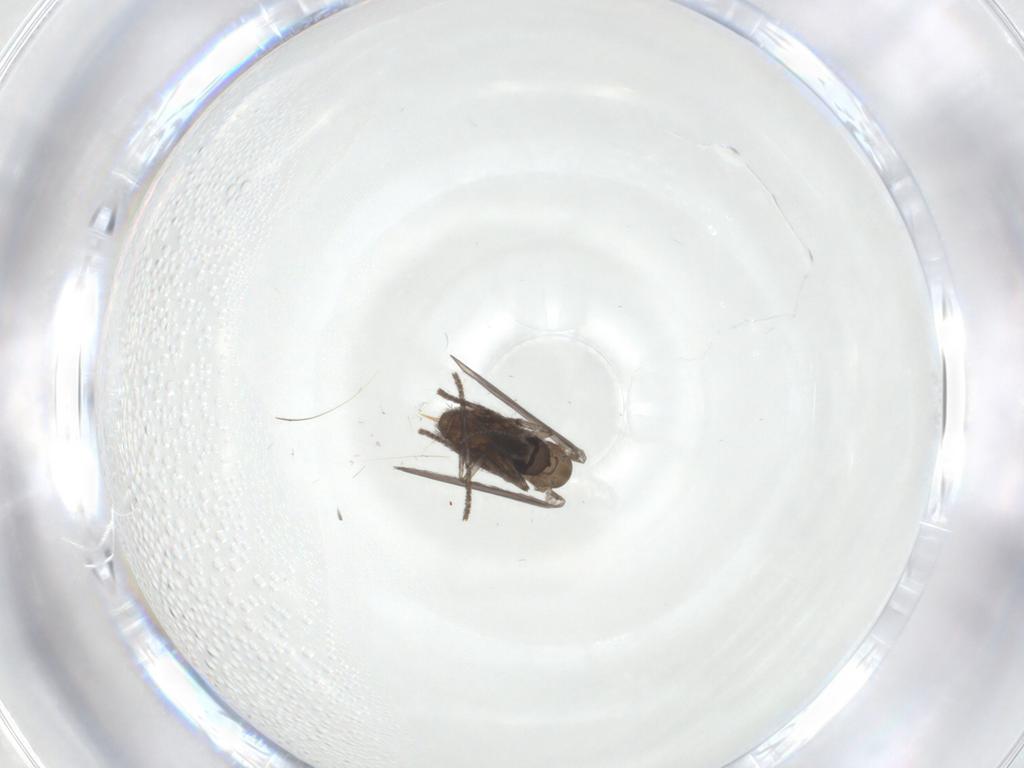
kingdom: Animalia
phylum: Arthropoda
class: Insecta
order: Diptera
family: Psychodidae
